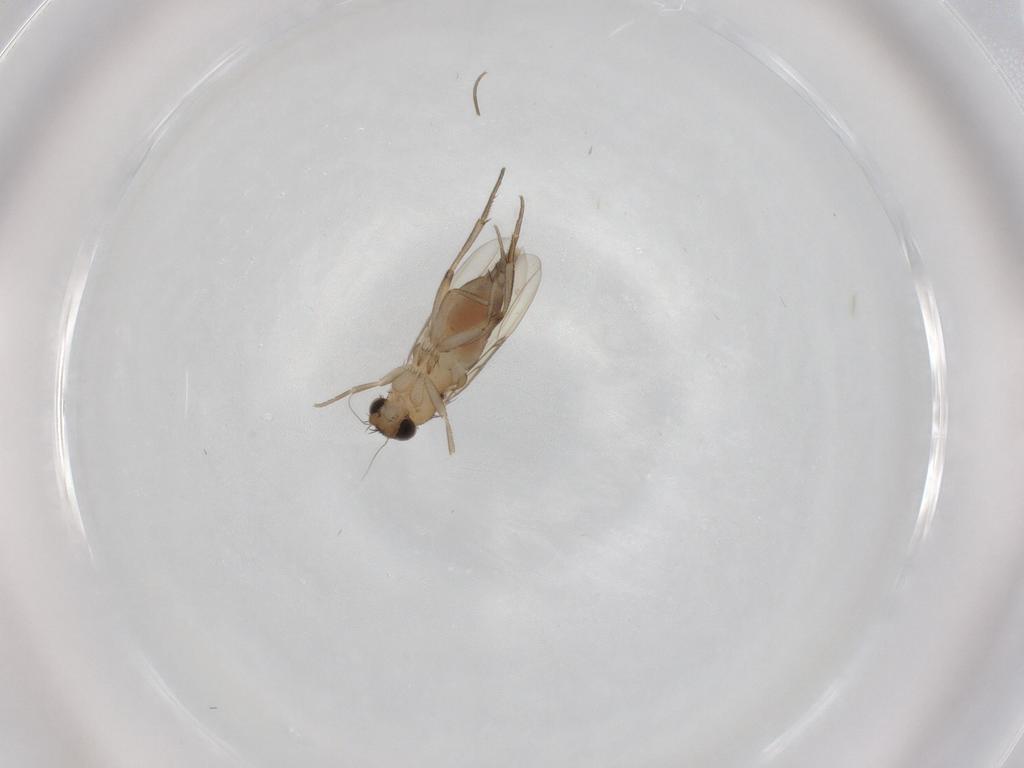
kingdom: Animalia
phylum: Arthropoda
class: Insecta
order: Diptera
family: Phoridae
